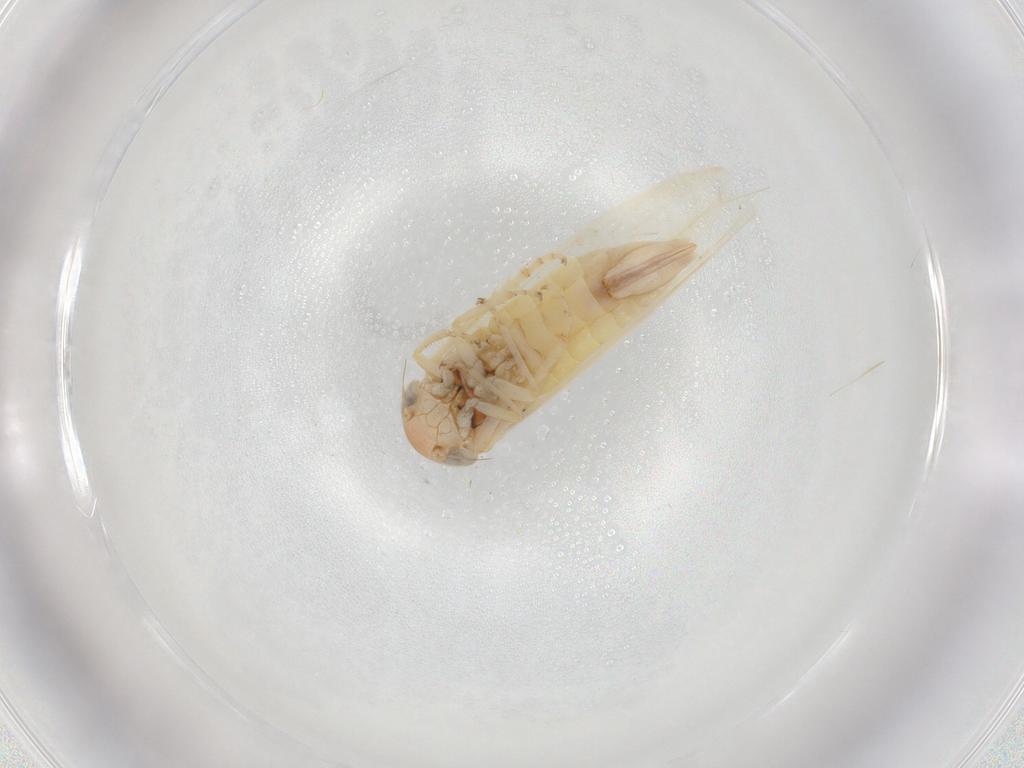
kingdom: Animalia
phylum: Arthropoda
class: Insecta
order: Hemiptera
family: Cicadellidae
